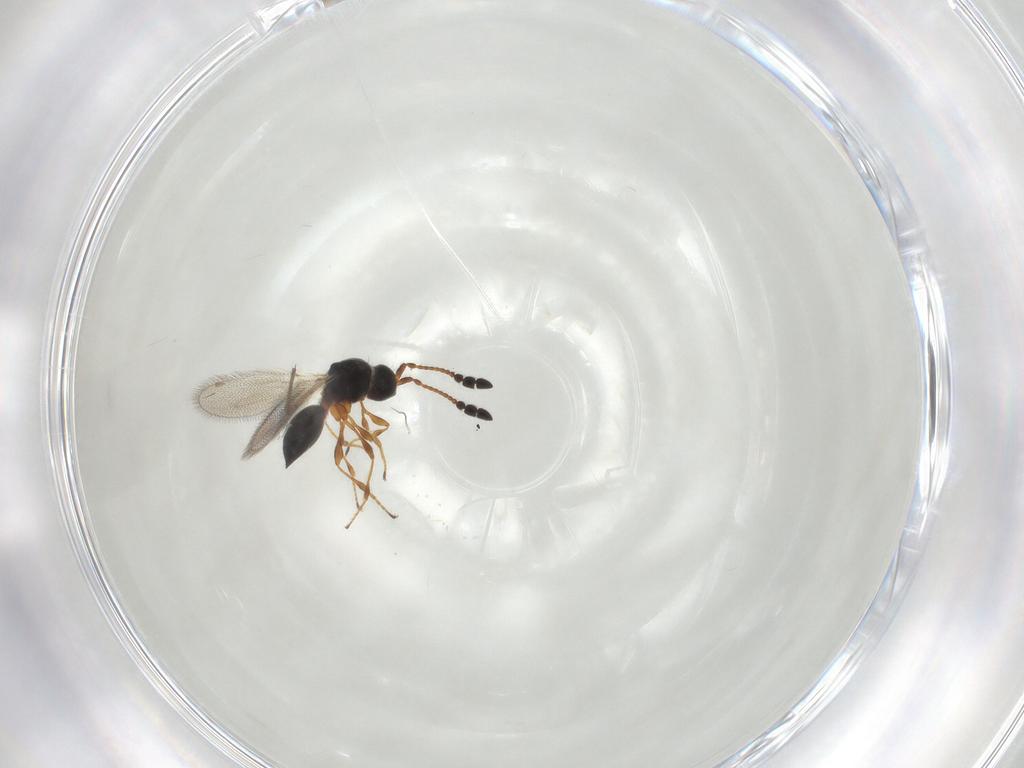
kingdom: Animalia
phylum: Arthropoda
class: Insecta
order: Hymenoptera
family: Diapriidae
